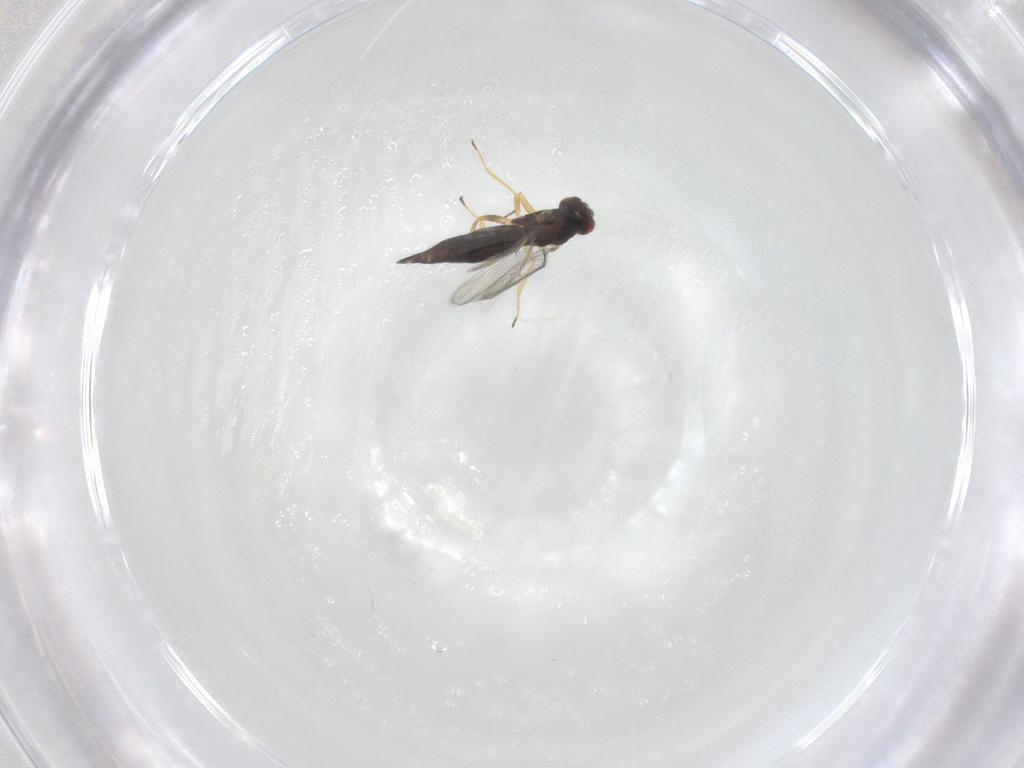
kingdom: Animalia
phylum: Arthropoda
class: Insecta
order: Hymenoptera
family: Eulophidae
